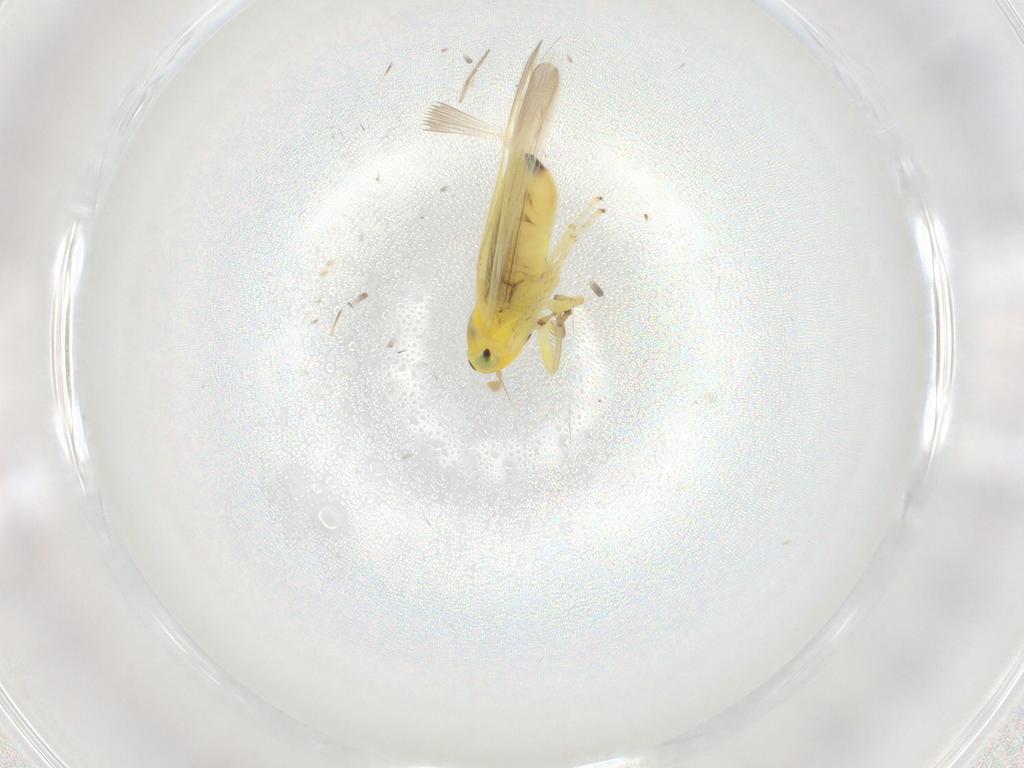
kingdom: Animalia
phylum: Arthropoda
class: Insecta
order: Hemiptera
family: Cicadellidae
